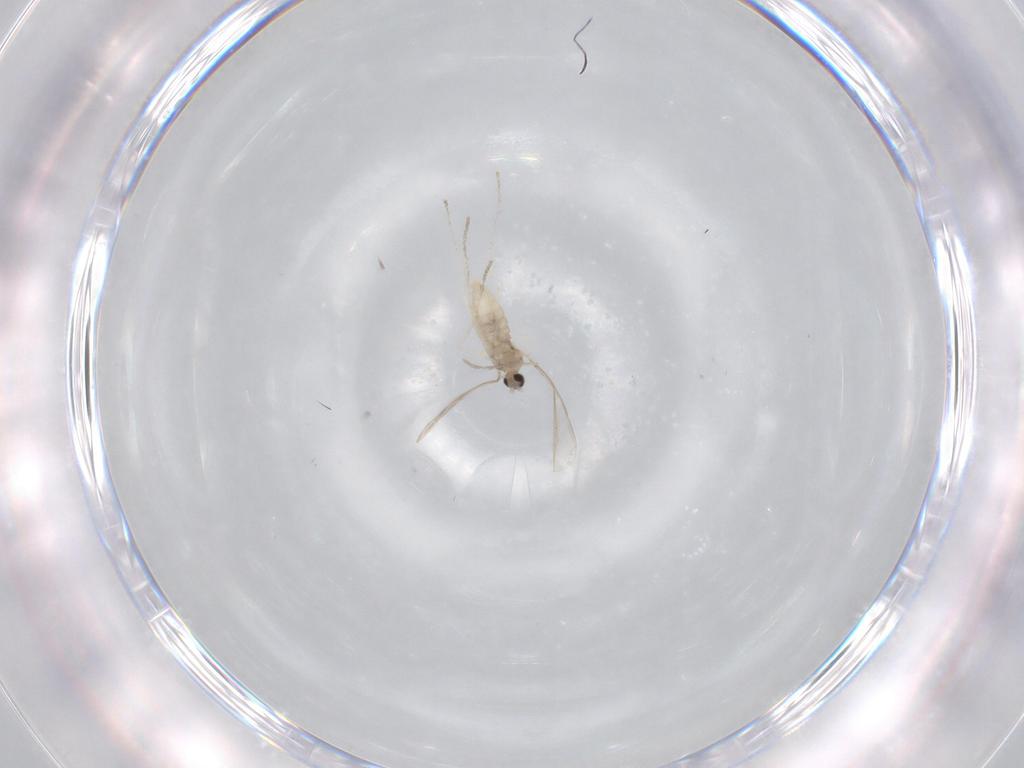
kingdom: Animalia
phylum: Arthropoda
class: Insecta
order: Diptera
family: Cecidomyiidae
